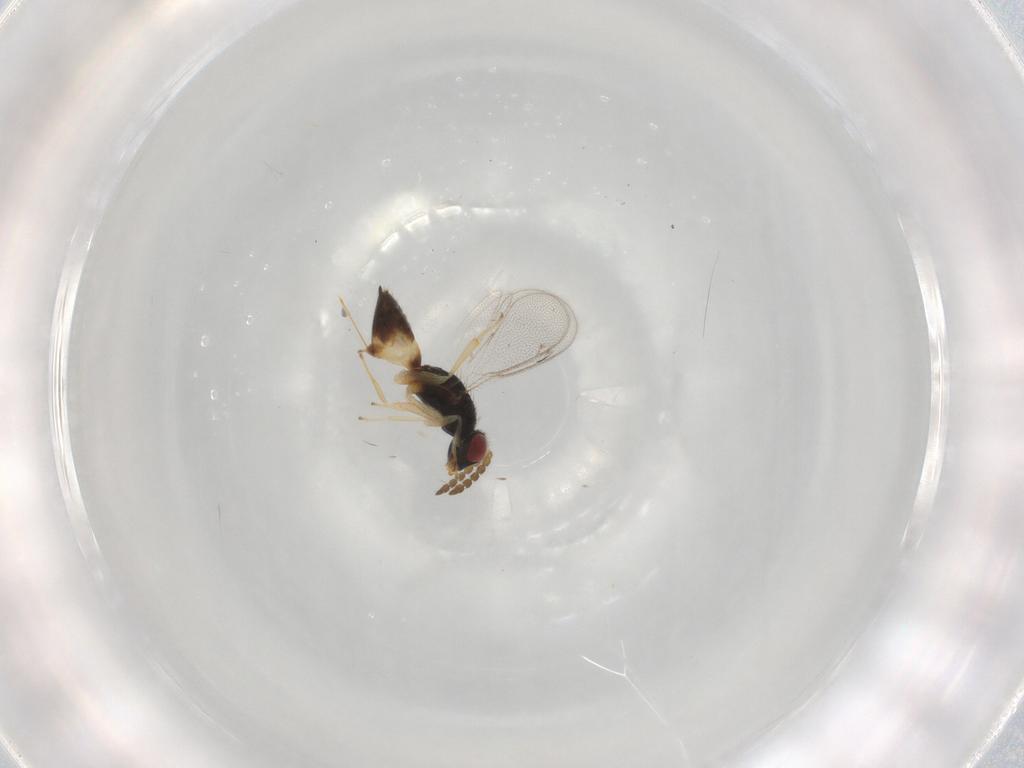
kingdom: Animalia
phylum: Arthropoda
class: Insecta
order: Hymenoptera
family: Eulophidae
